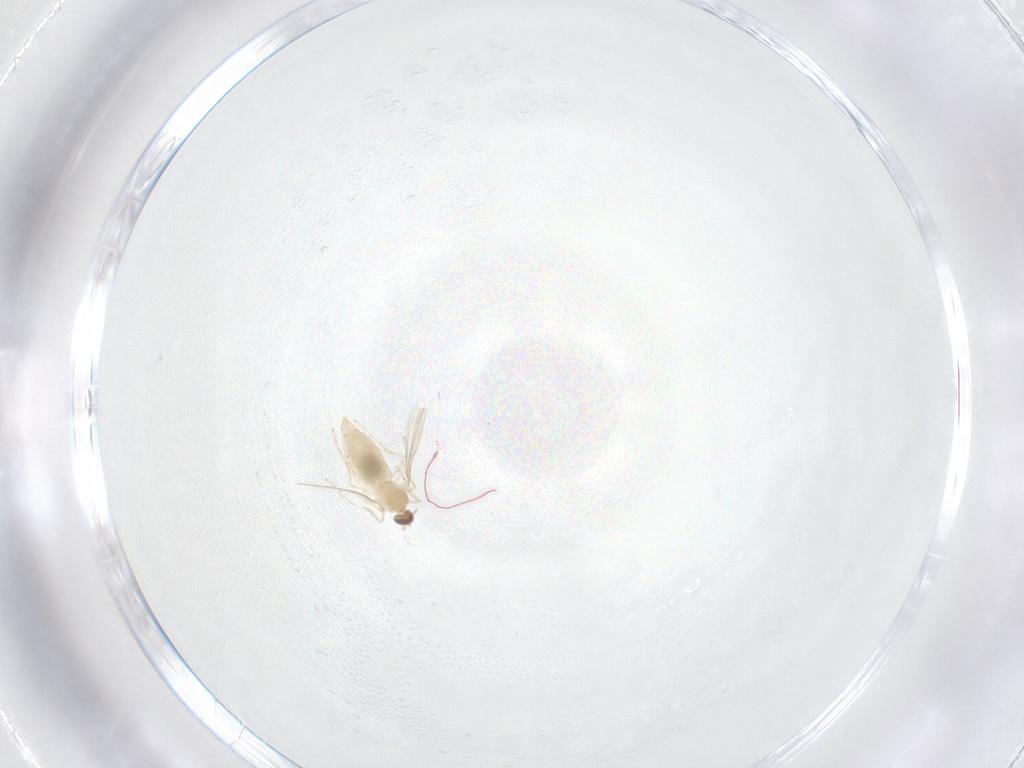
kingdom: Animalia
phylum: Arthropoda
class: Insecta
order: Diptera
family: Cecidomyiidae
